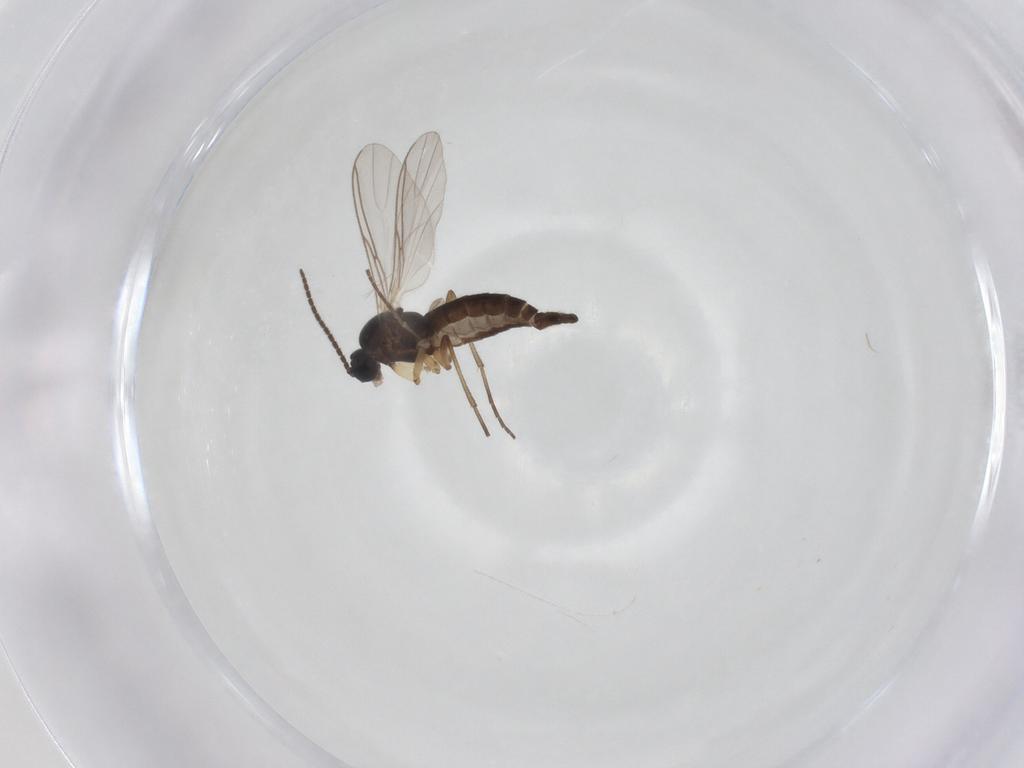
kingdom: Animalia
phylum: Arthropoda
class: Insecta
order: Diptera
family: Sciaridae
